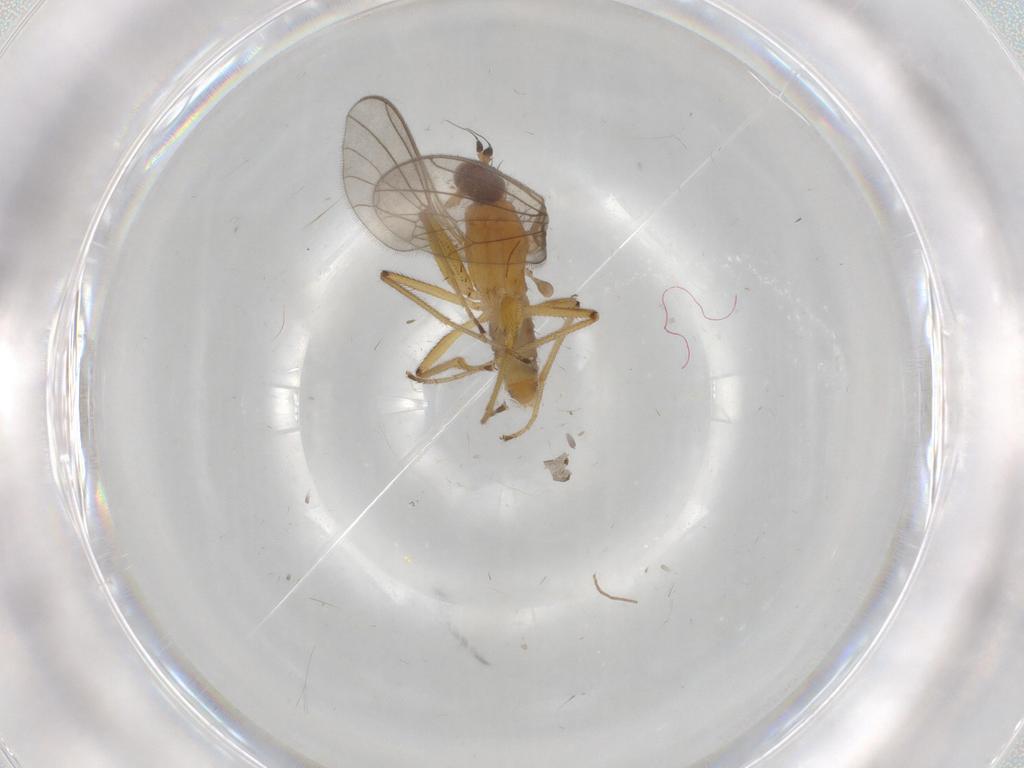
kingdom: Animalia
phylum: Arthropoda
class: Insecta
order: Diptera
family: Empididae
